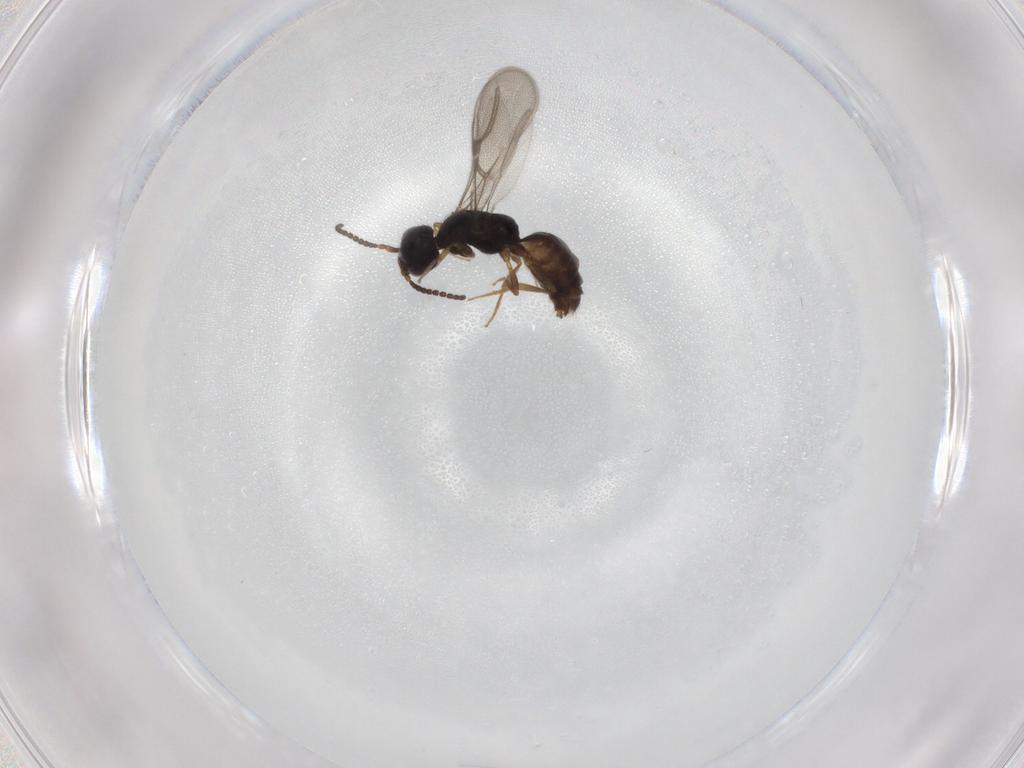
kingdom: Animalia
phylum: Arthropoda
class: Insecta
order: Hymenoptera
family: Bethylidae
